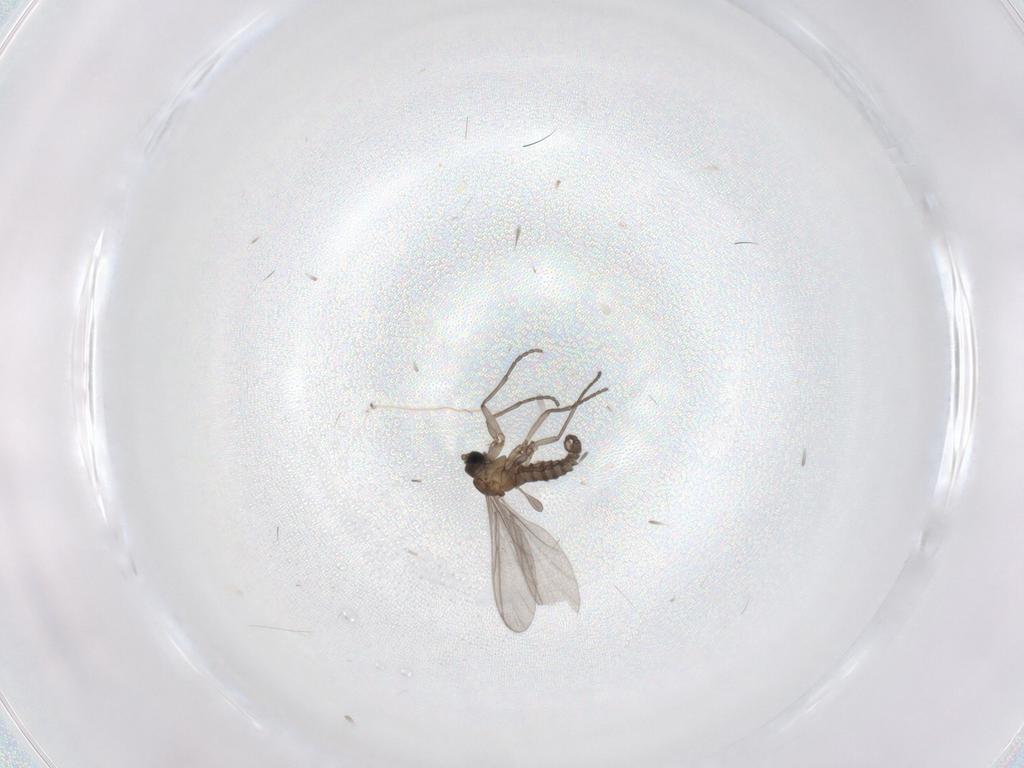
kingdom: Animalia
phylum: Arthropoda
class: Insecta
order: Diptera
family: Sciaridae
